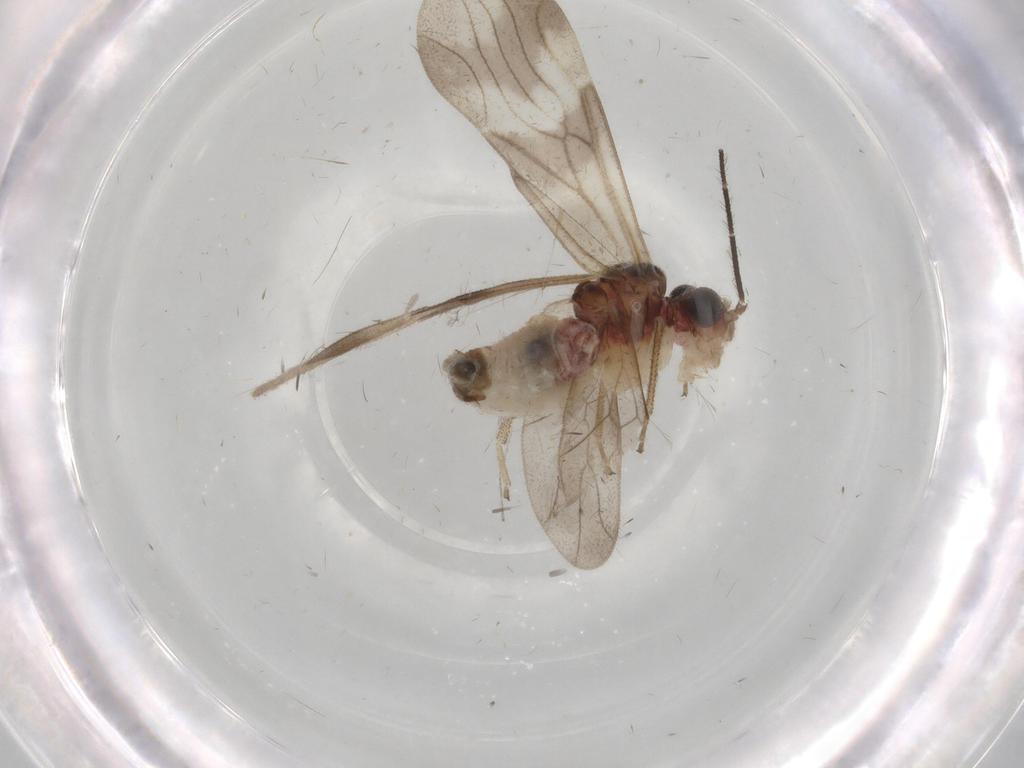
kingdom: Animalia
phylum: Arthropoda
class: Insecta
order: Psocodea
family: Amphipsocidae
